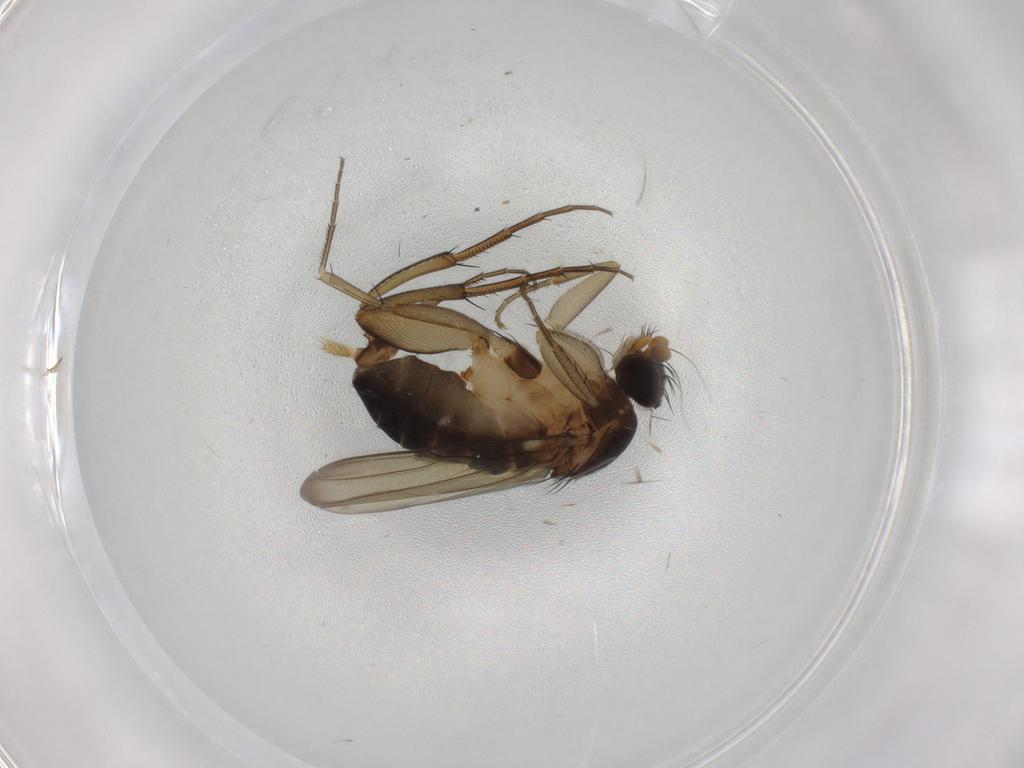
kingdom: Animalia
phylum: Arthropoda
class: Insecta
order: Diptera
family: Phoridae
